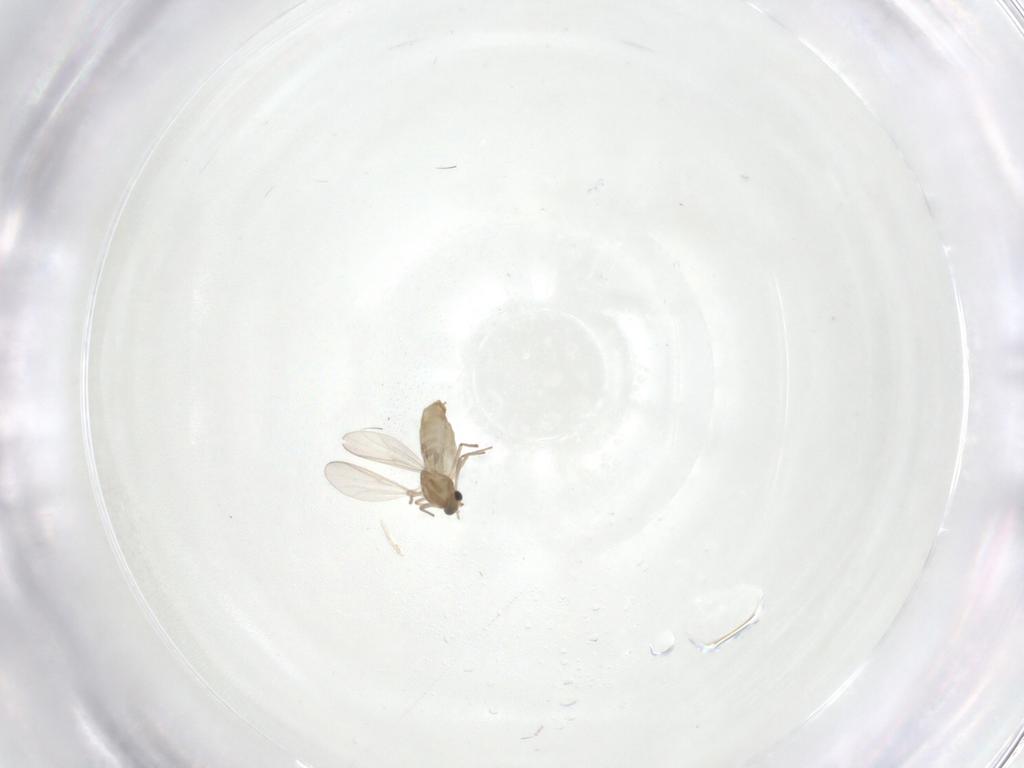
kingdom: Animalia
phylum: Arthropoda
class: Insecta
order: Diptera
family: Chironomidae
